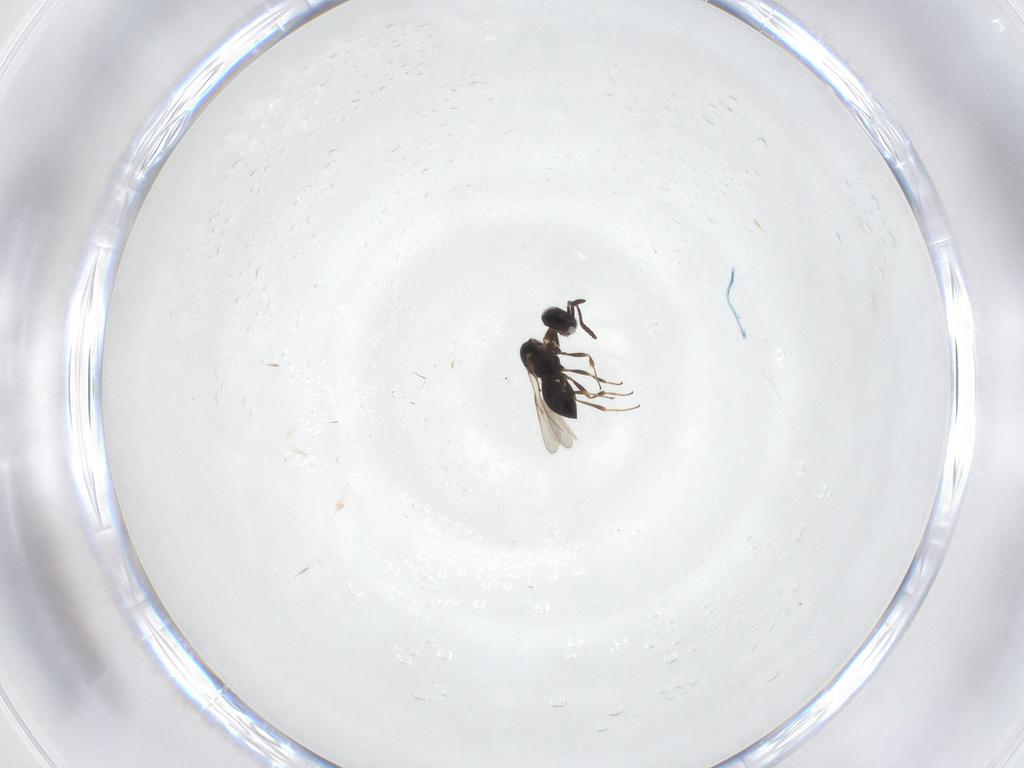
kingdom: Animalia
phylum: Arthropoda
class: Insecta
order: Hymenoptera
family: Scelionidae
